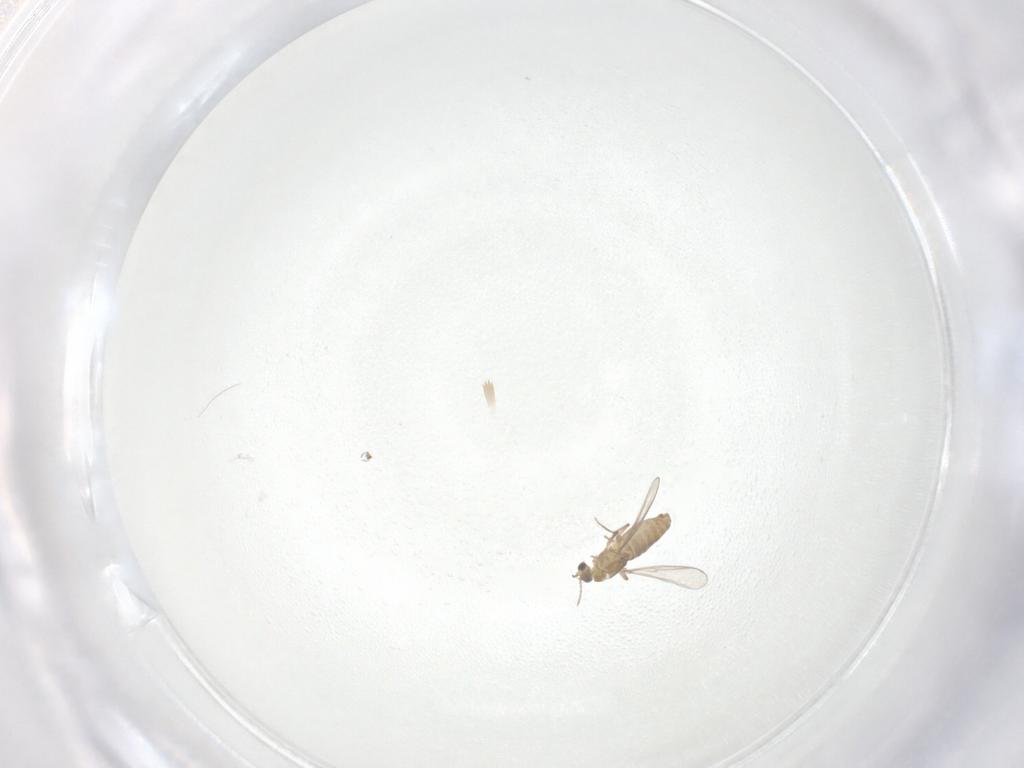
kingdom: Animalia
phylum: Arthropoda
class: Insecta
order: Diptera
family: Chironomidae
